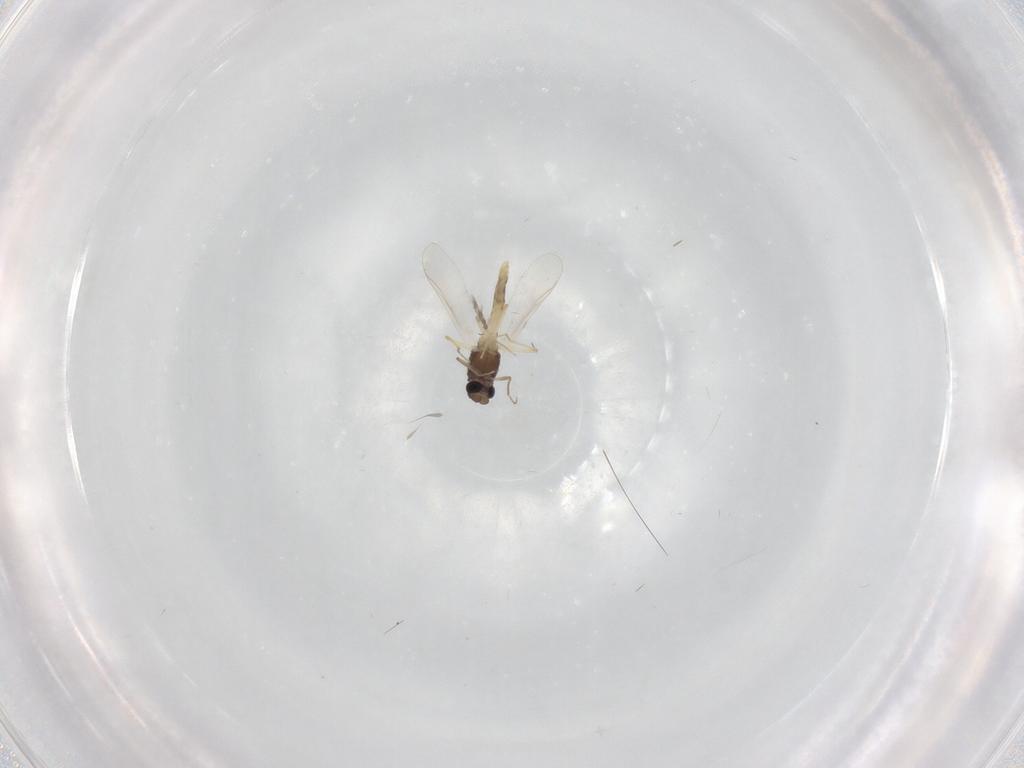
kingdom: Animalia
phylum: Arthropoda
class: Insecta
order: Diptera
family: Chironomidae
